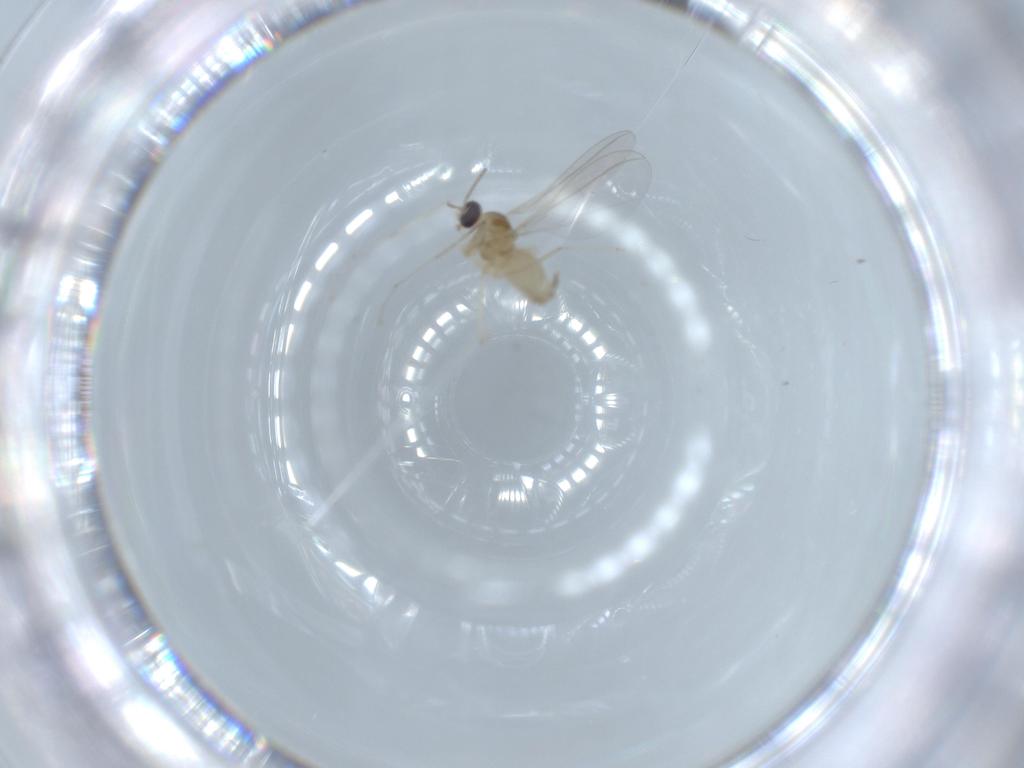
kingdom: Animalia
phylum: Arthropoda
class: Insecta
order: Diptera
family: Cecidomyiidae
